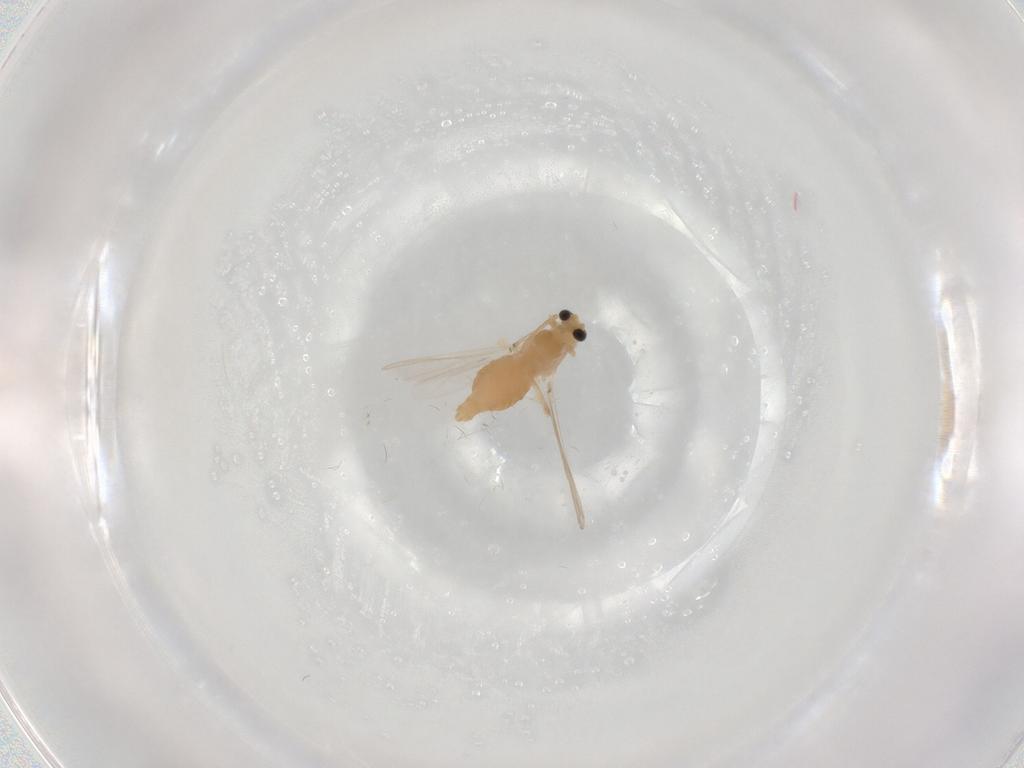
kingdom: Animalia
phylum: Arthropoda
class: Insecta
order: Diptera
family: Chironomidae
